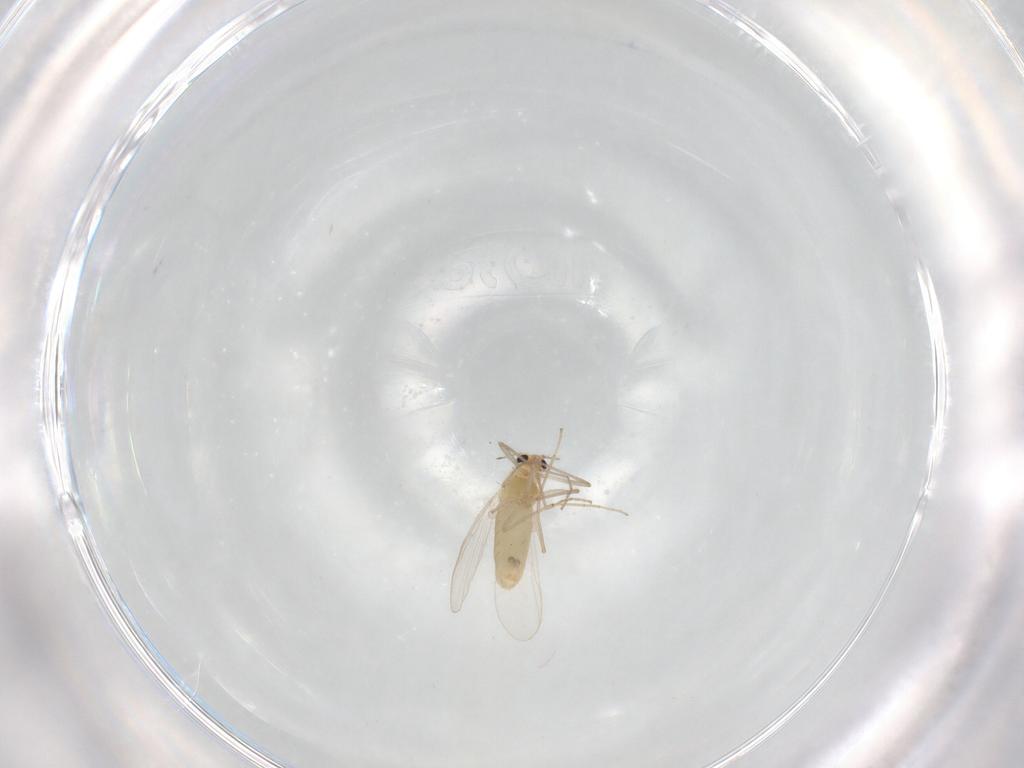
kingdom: Animalia
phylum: Arthropoda
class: Insecta
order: Diptera
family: Chironomidae
